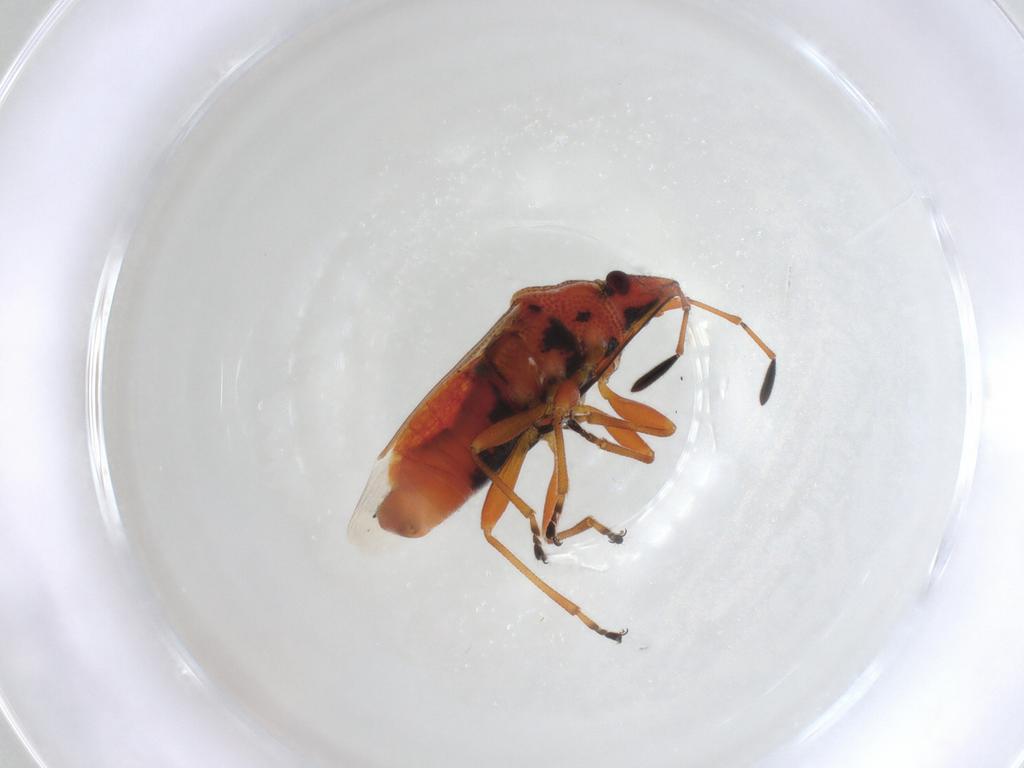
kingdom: Animalia
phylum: Arthropoda
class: Insecta
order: Hemiptera
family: Lygaeidae
